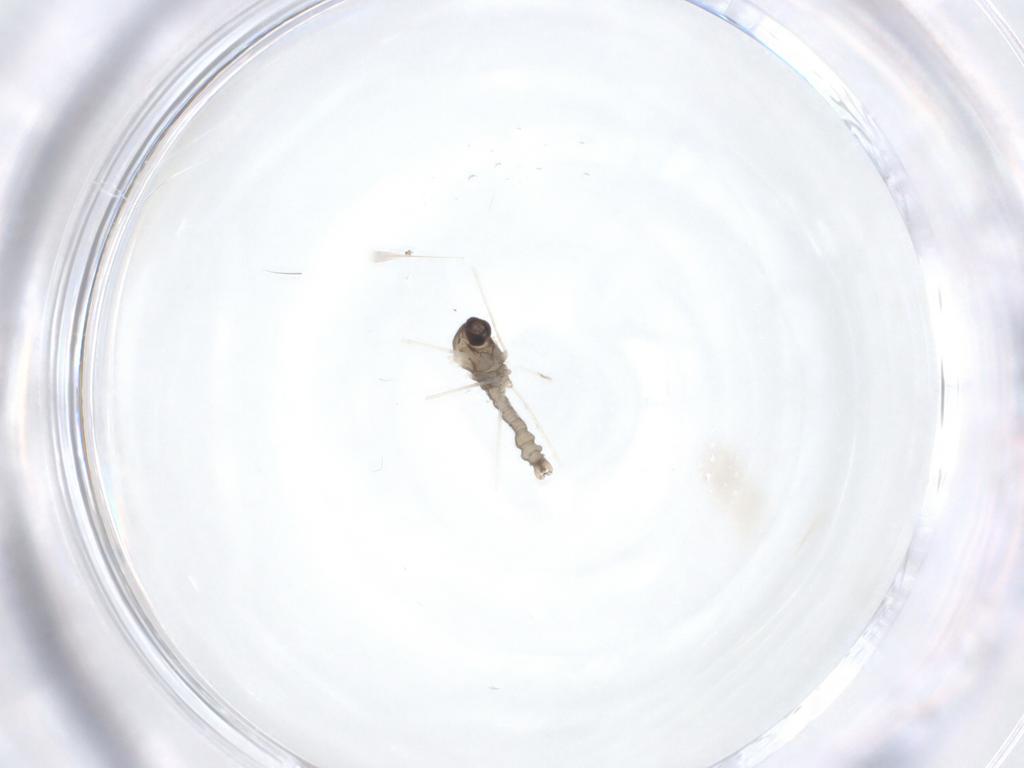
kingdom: Animalia
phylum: Arthropoda
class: Insecta
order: Diptera
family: Cecidomyiidae
